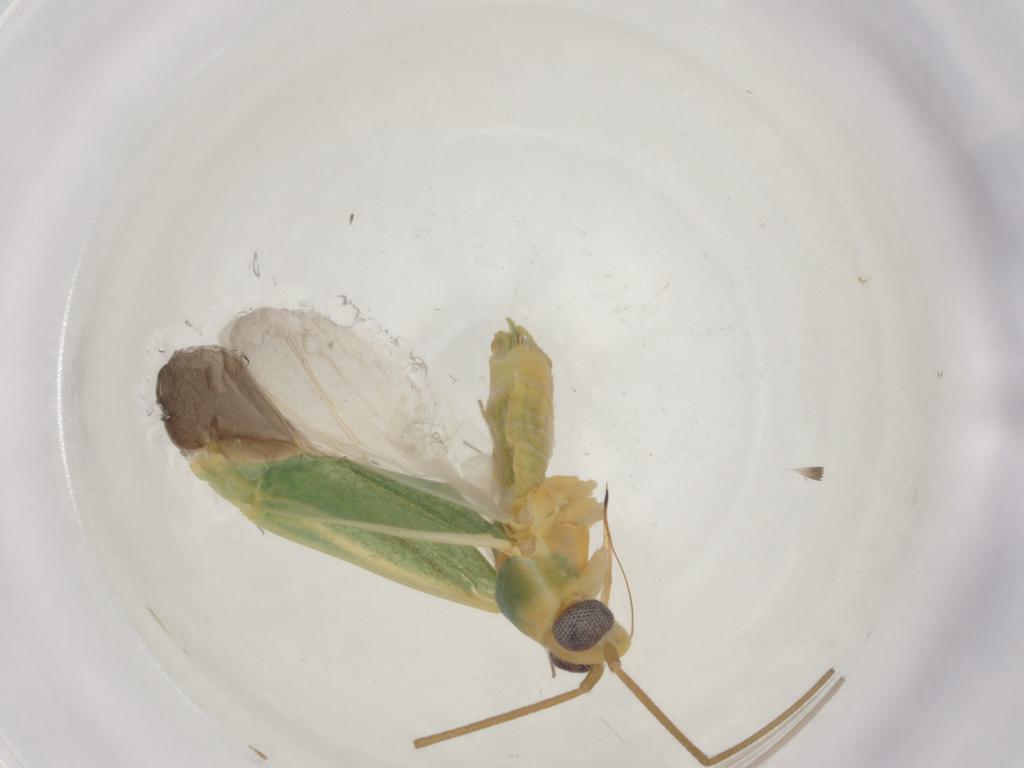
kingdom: Animalia
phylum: Arthropoda
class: Insecta
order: Hemiptera
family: Miridae
